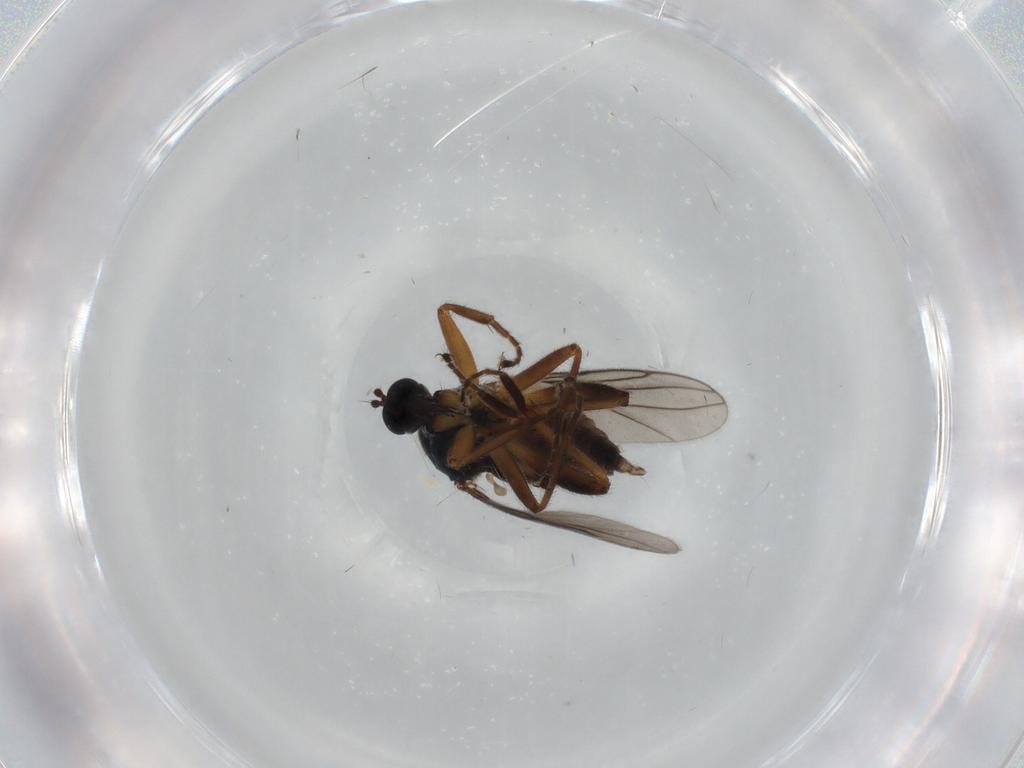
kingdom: Animalia
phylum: Arthropoda
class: Insecta
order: Diptera
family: Hybotidae
